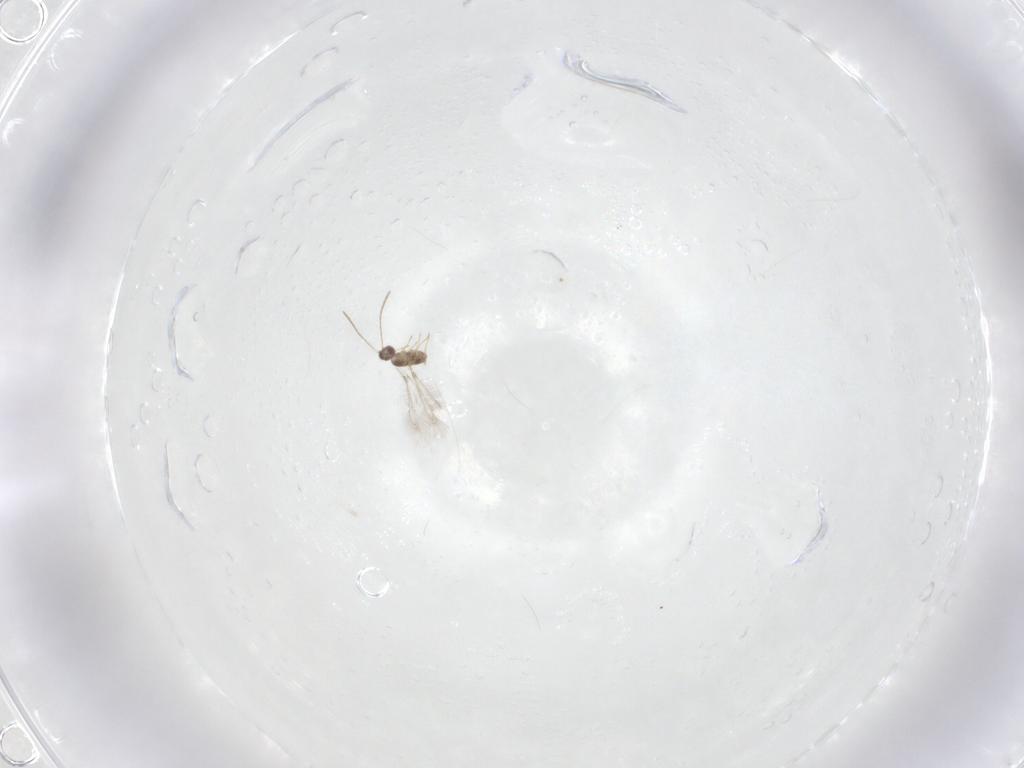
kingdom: Animalia
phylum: Arthropoda
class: Insecta
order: Hymenoptera
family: Mymaridae
